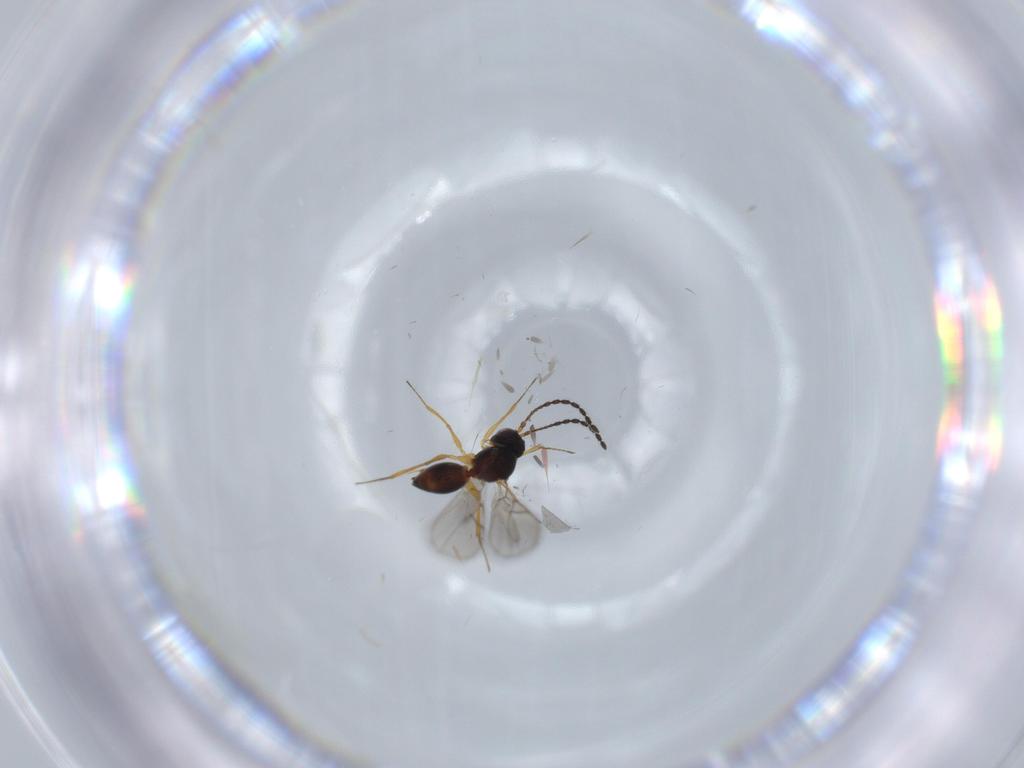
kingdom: Animalia
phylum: Arthropoda
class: Insecta
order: Hymenoptera
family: Figitidae
